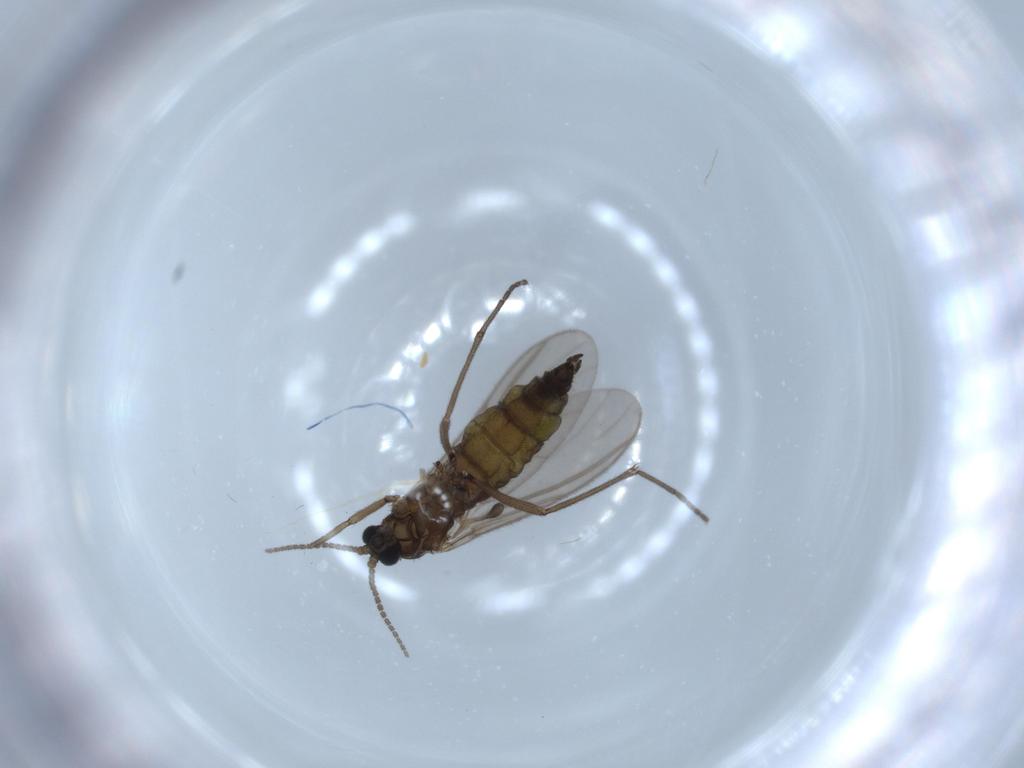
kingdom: Animalia
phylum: Arthropoda
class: Insecta
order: Diptera
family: Sciaridae
